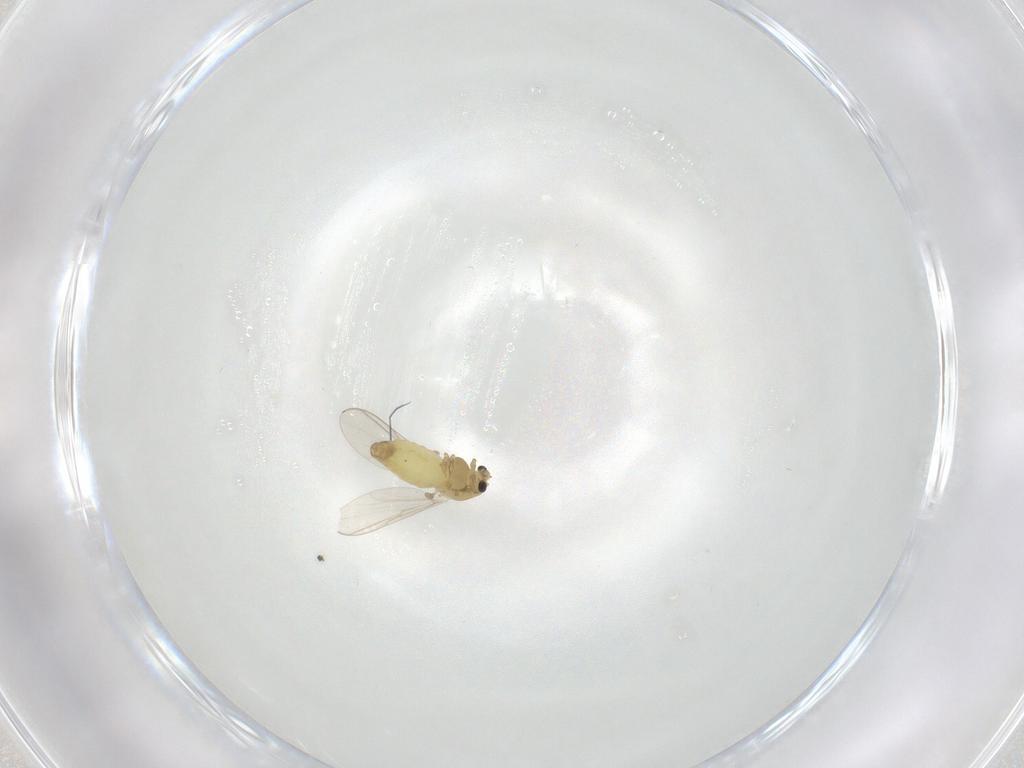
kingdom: Animalia
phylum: Arthropoda
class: Insecta
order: Diptera
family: Chironomidae
